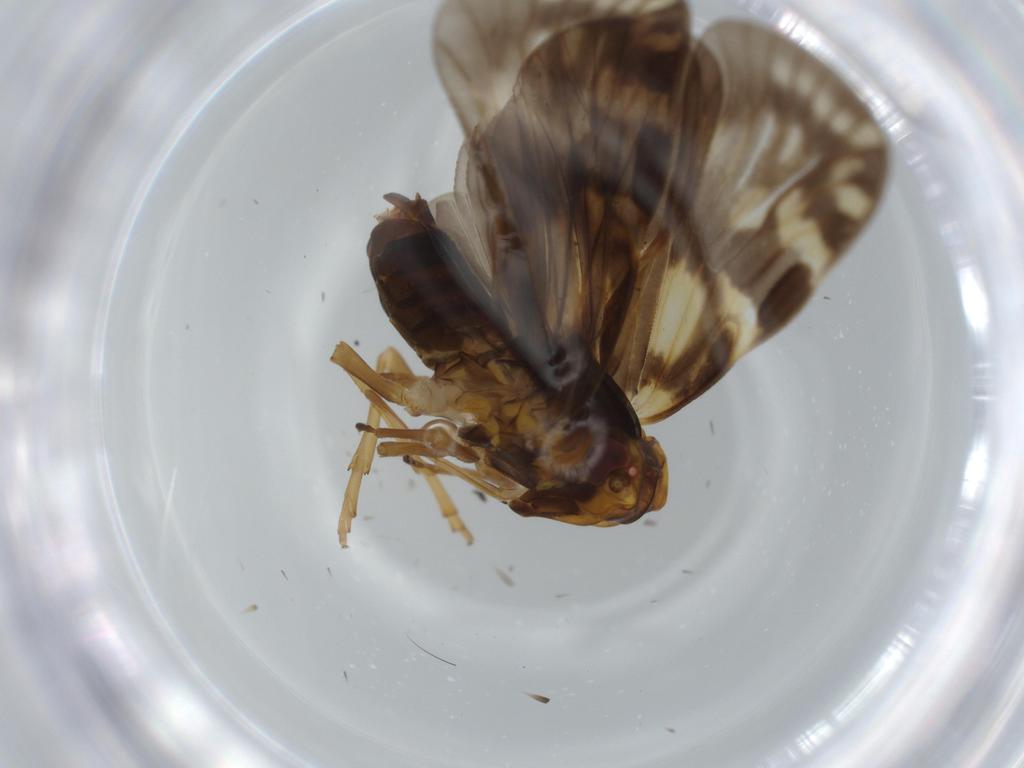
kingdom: Animalia
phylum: Arthropoda
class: Insecta
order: Hemiptera
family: Cixiidae
